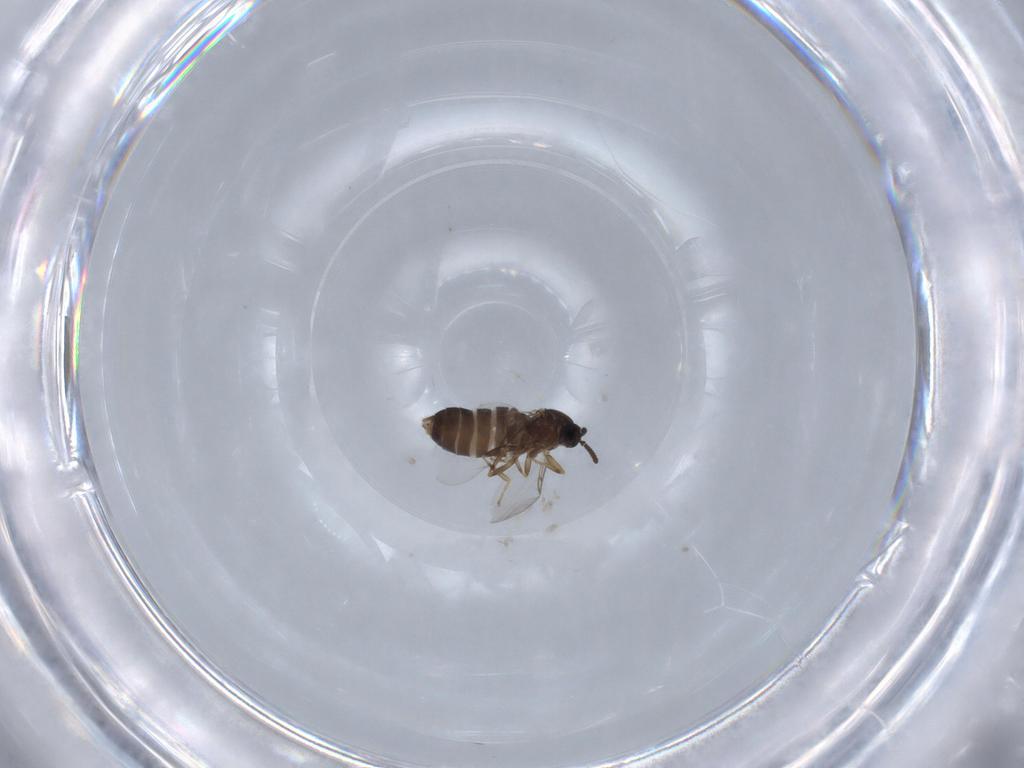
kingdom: Animalia
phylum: Arthropoda
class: Insecta
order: Diptera
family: Scatopsidae
